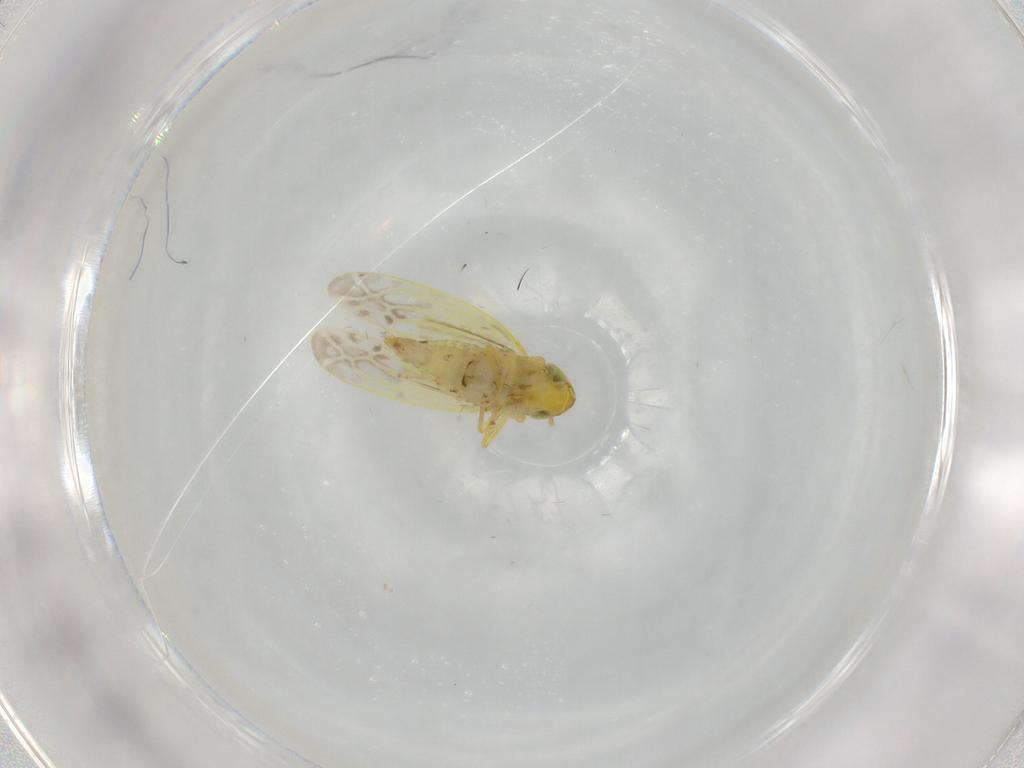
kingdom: Animalia
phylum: Arthropoda
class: Insecta
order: Hemiptera
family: Cicadellidae
